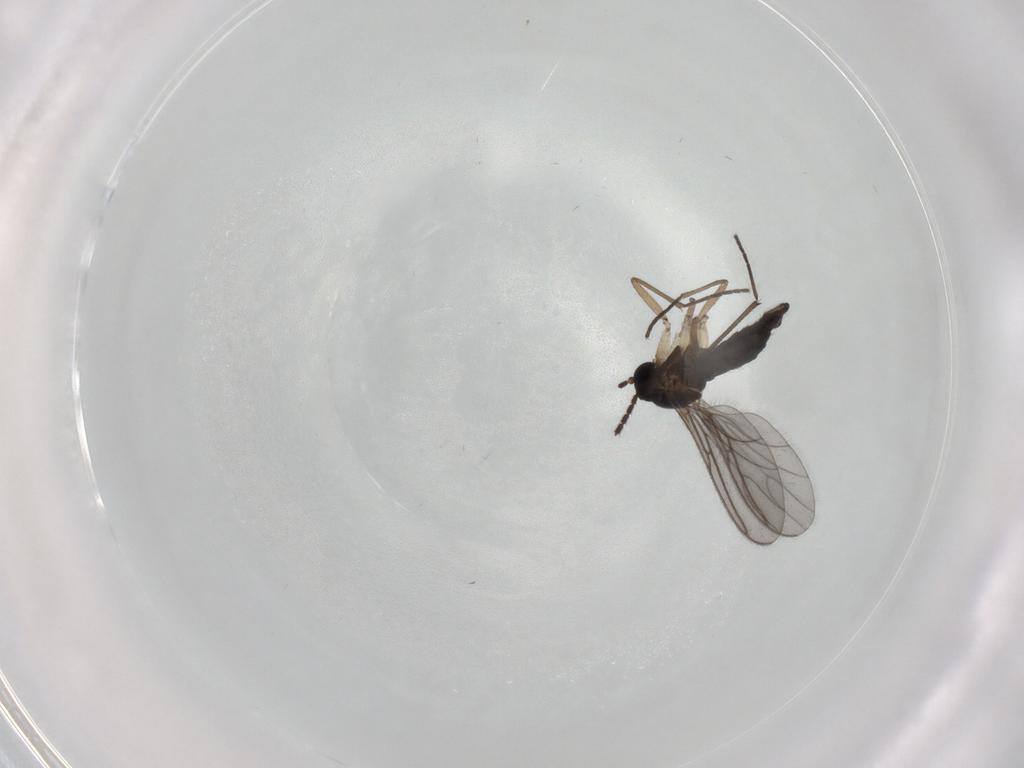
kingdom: Animalia
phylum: Arthropoda
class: Insecta
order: Diptera
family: Sciaridae
